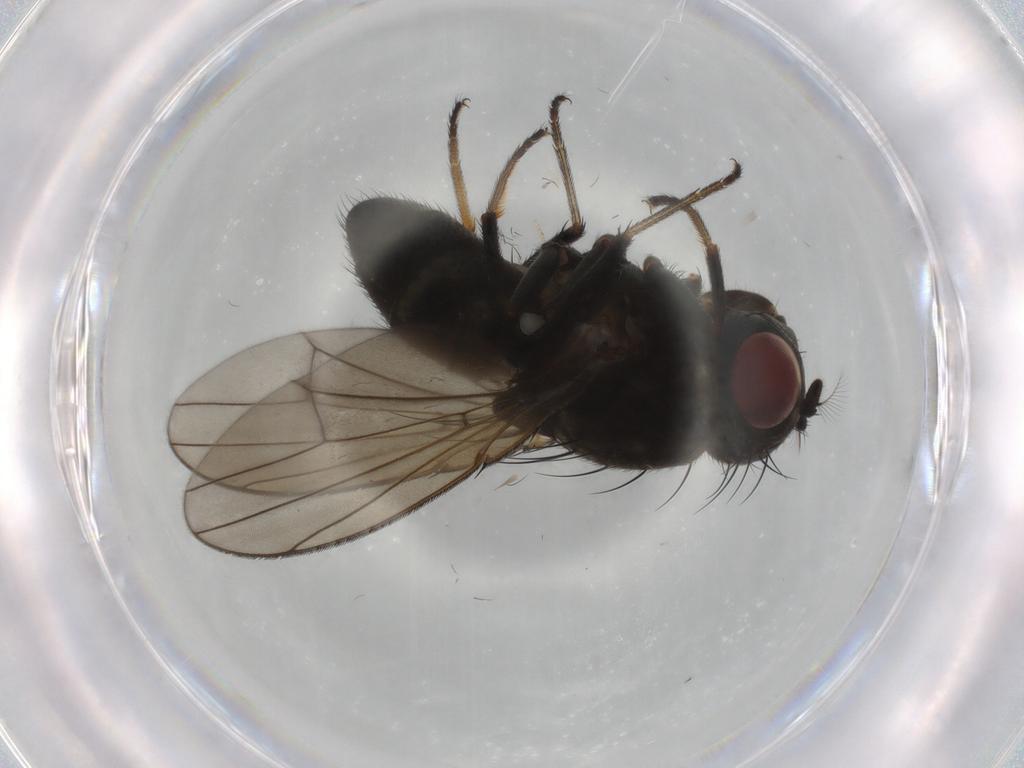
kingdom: Animalia
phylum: Arthropoda
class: Insecta
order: Diptera
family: Ephydridae
